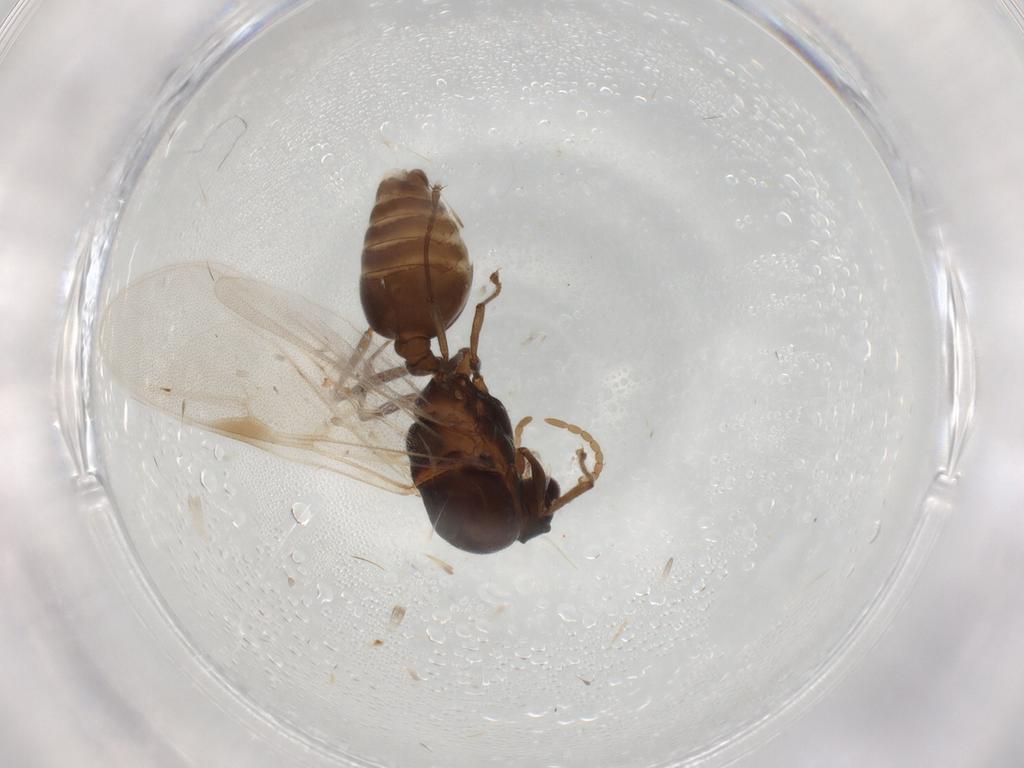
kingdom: Animalia
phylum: Arthropoda
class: Insecta
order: Hymenoptera
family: Formicidae
